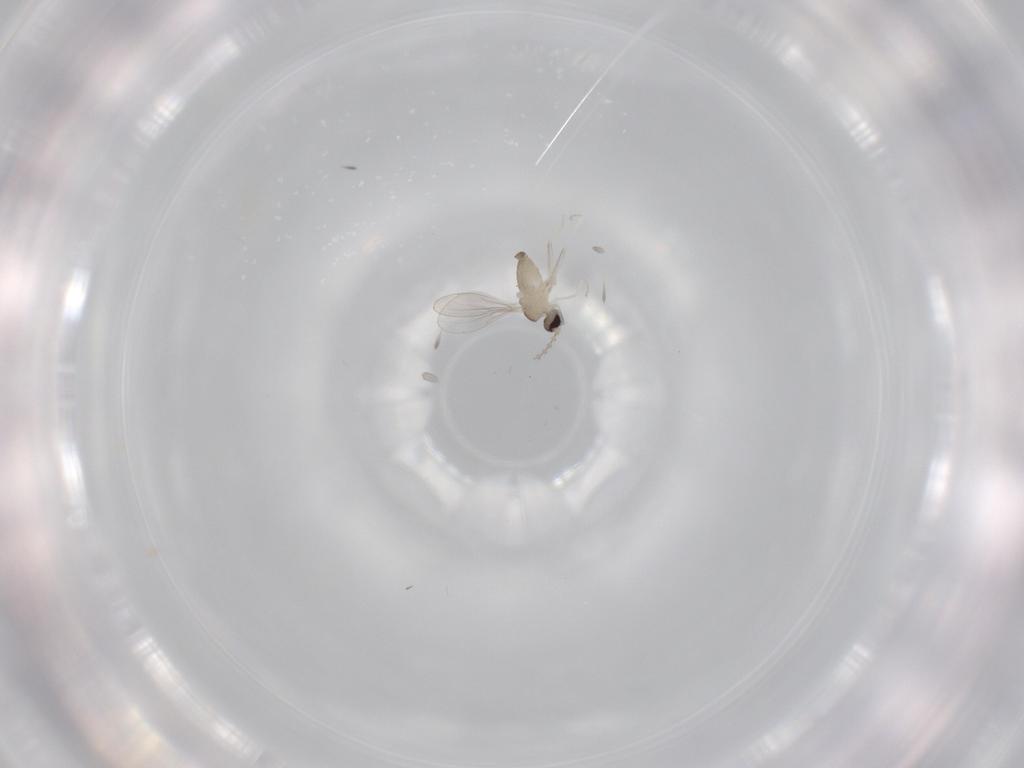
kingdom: Animalia
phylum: Arthropoda
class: Insecta
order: Diptera
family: Cecidomyiidae
